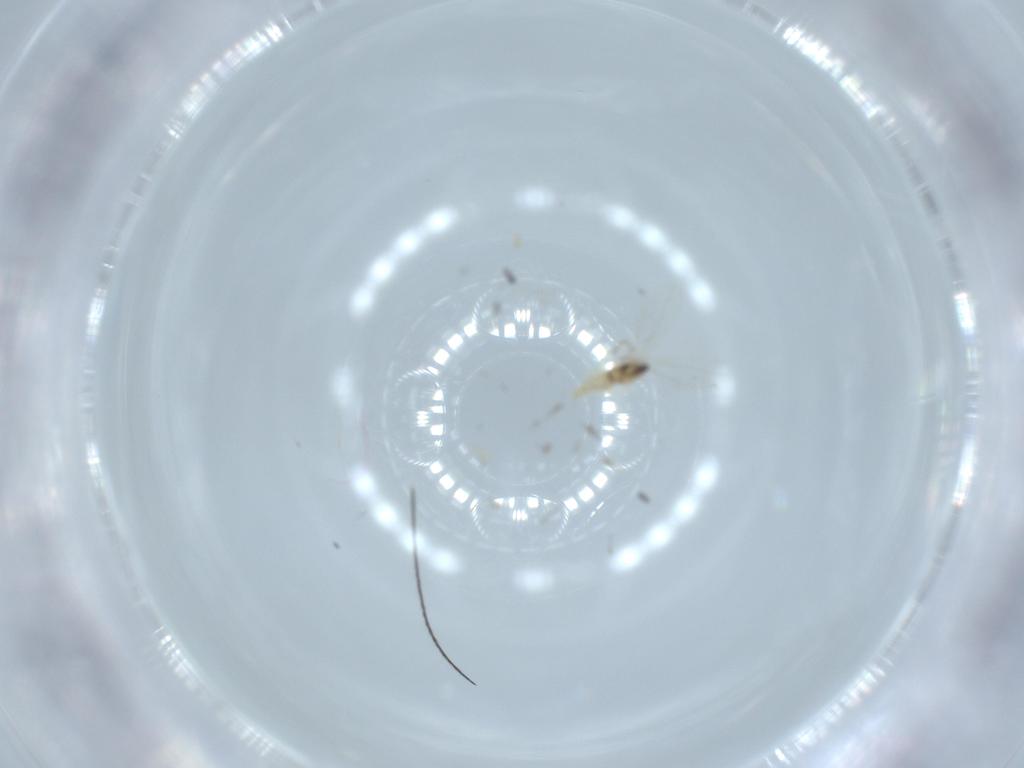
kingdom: Animalia
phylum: Arthropoda
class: Insecta
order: Diptera
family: Cecidomyiidae
